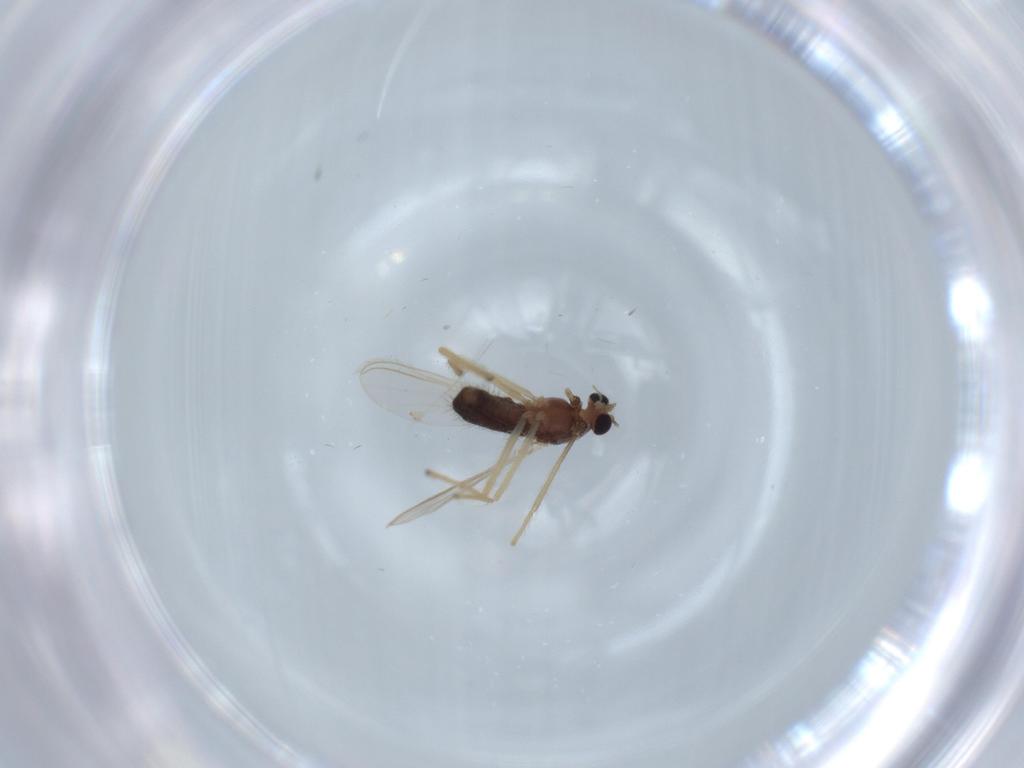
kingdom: Animalia
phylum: Arthropoda
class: Insecta
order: Diptera
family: Chironomidae
